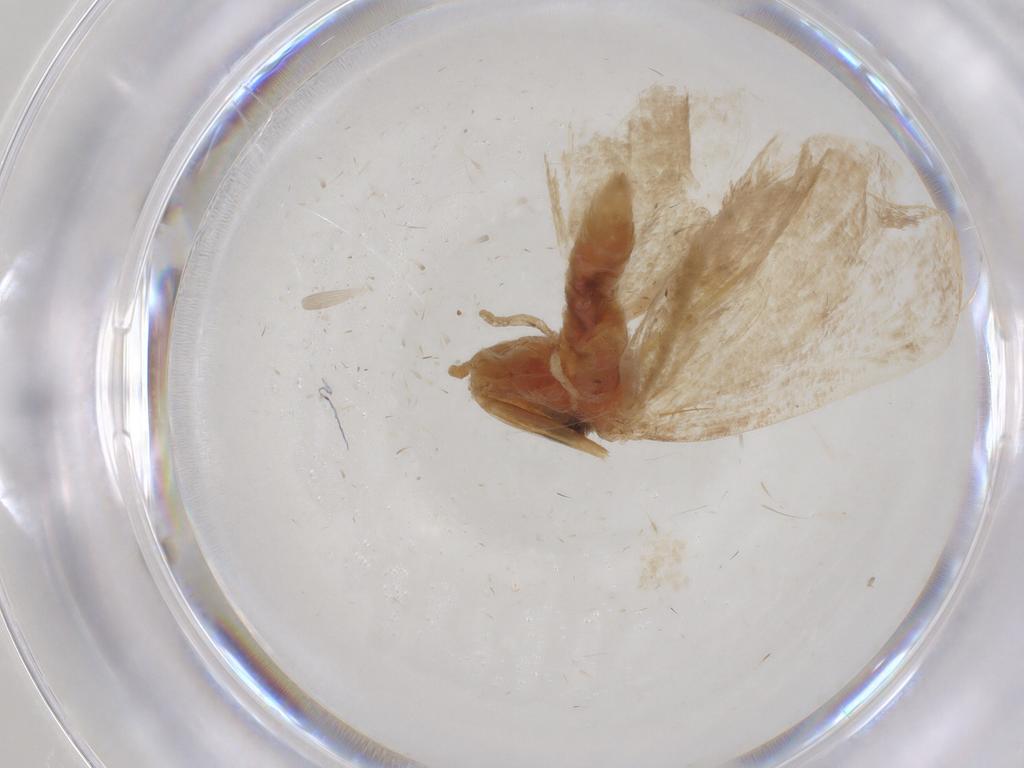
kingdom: Animalia
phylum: Arthropoda
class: Insecta
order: Lepidoptera
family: Geometridae
